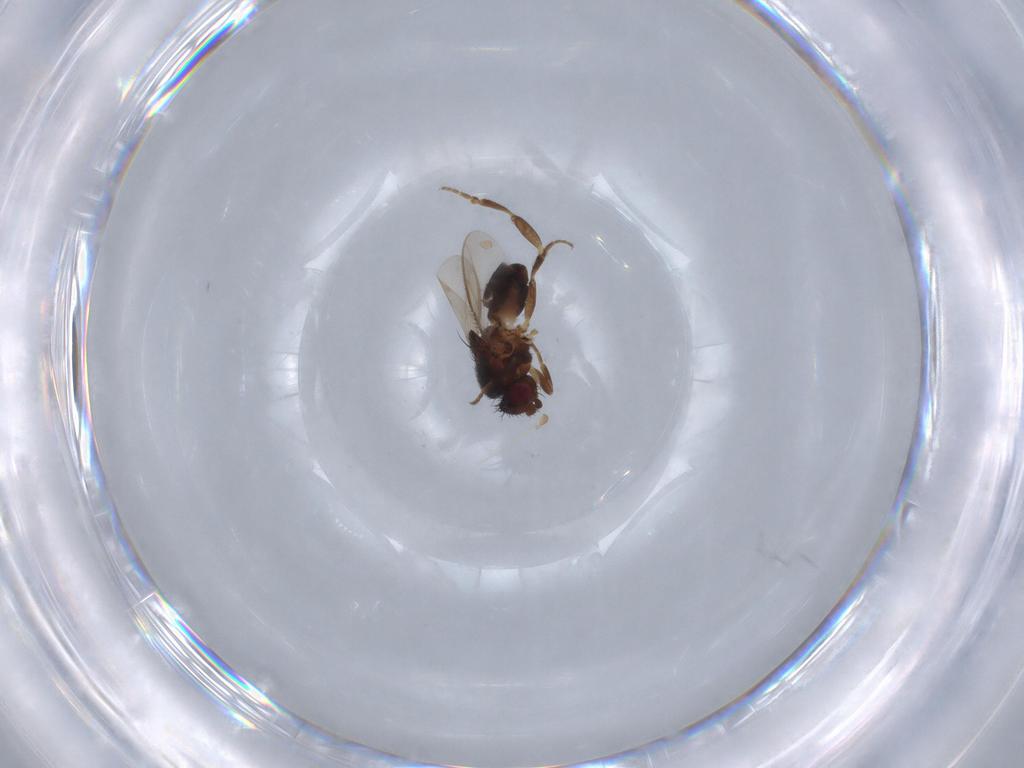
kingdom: Animalia
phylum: Arthropoda
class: Insecta
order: Diptera
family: Sphaeroceridae
